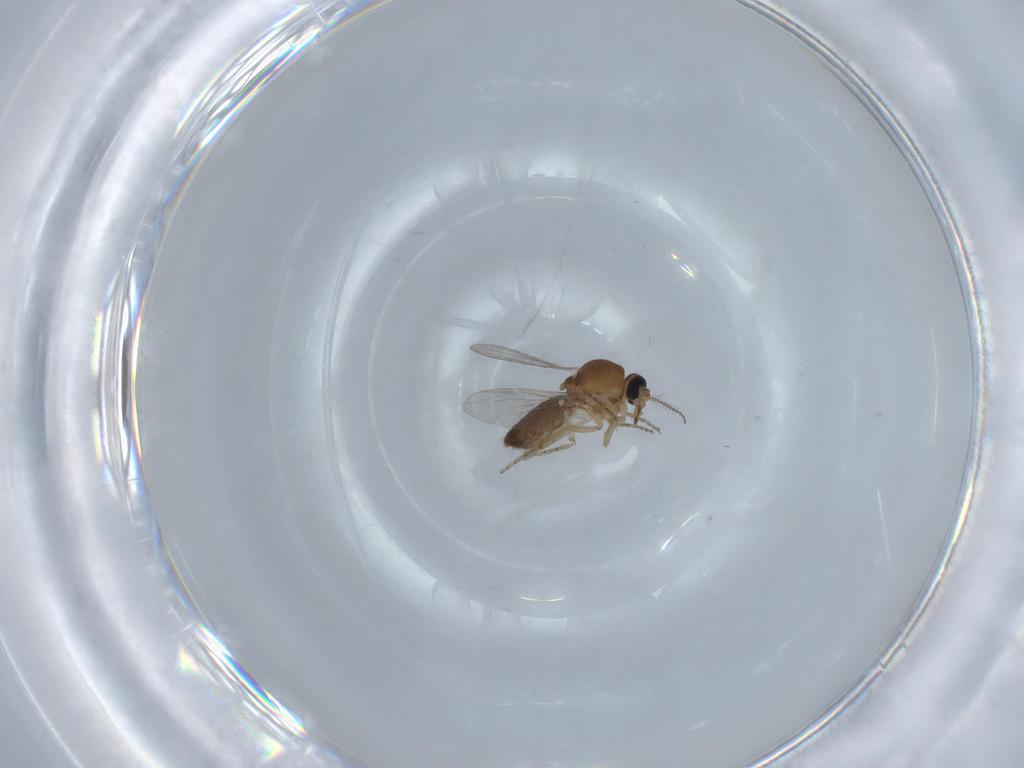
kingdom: Animalia
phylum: Arthropoda
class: Insecta
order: Diptera
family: Ceratopogonidae
